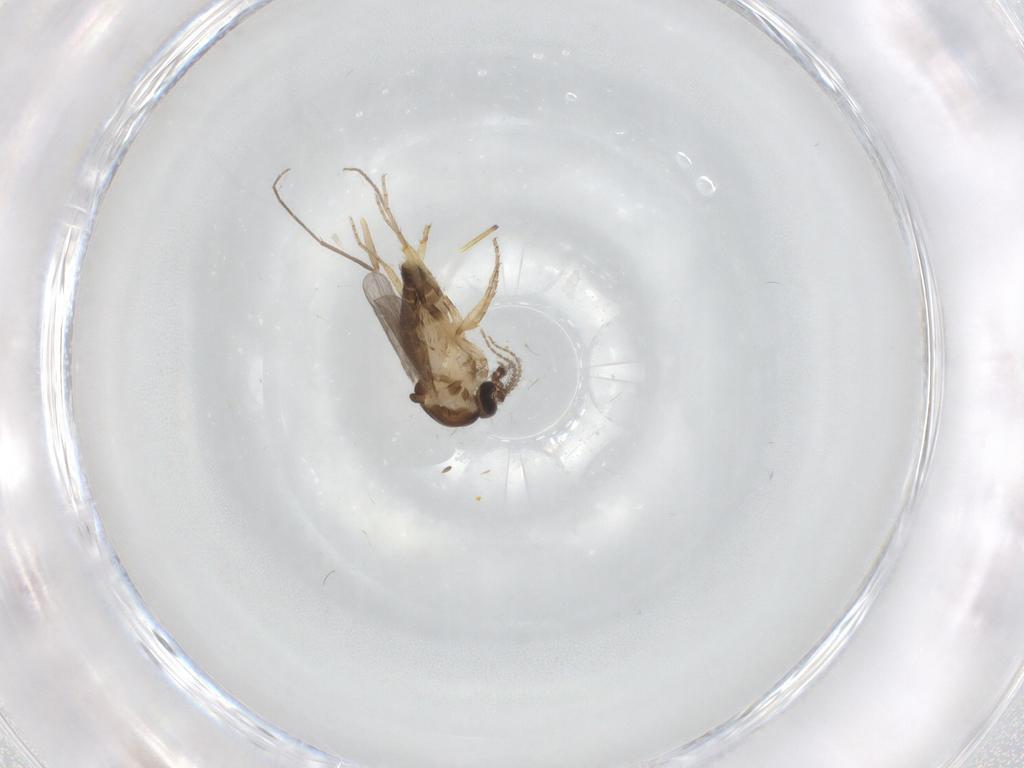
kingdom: Animalia
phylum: Arthropoda
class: Insecta
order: Diptera
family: Ceratopogonidae
